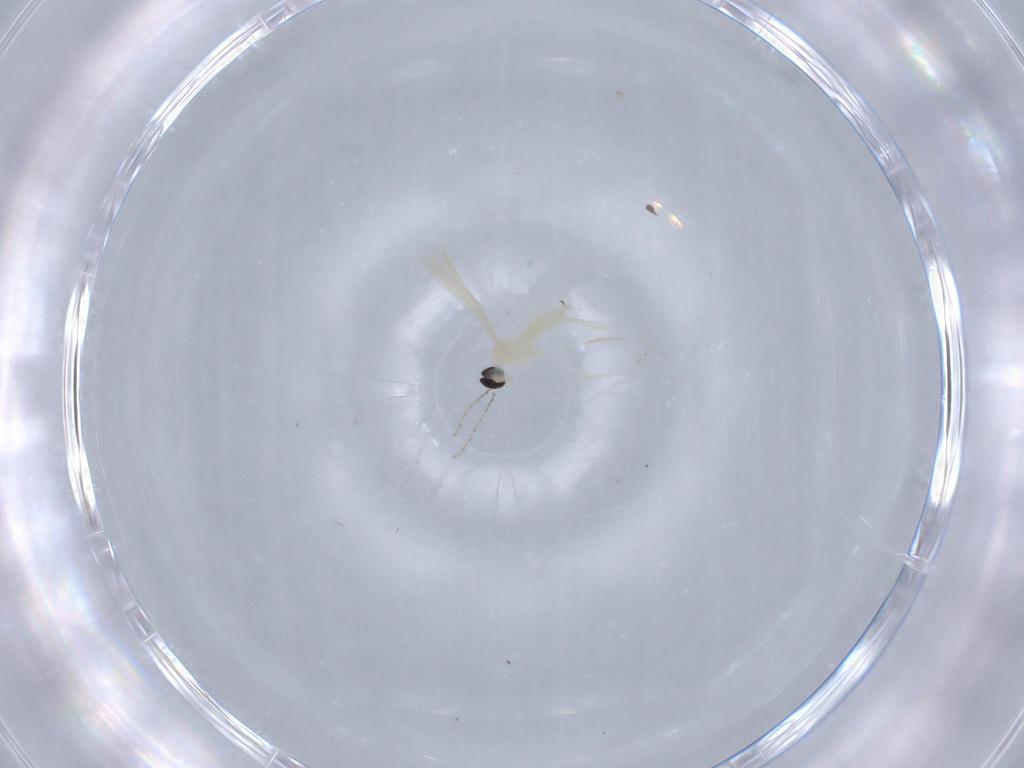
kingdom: Animalia
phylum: Arthropoda
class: Insecta
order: Diptera
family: Cecidomyiidae
